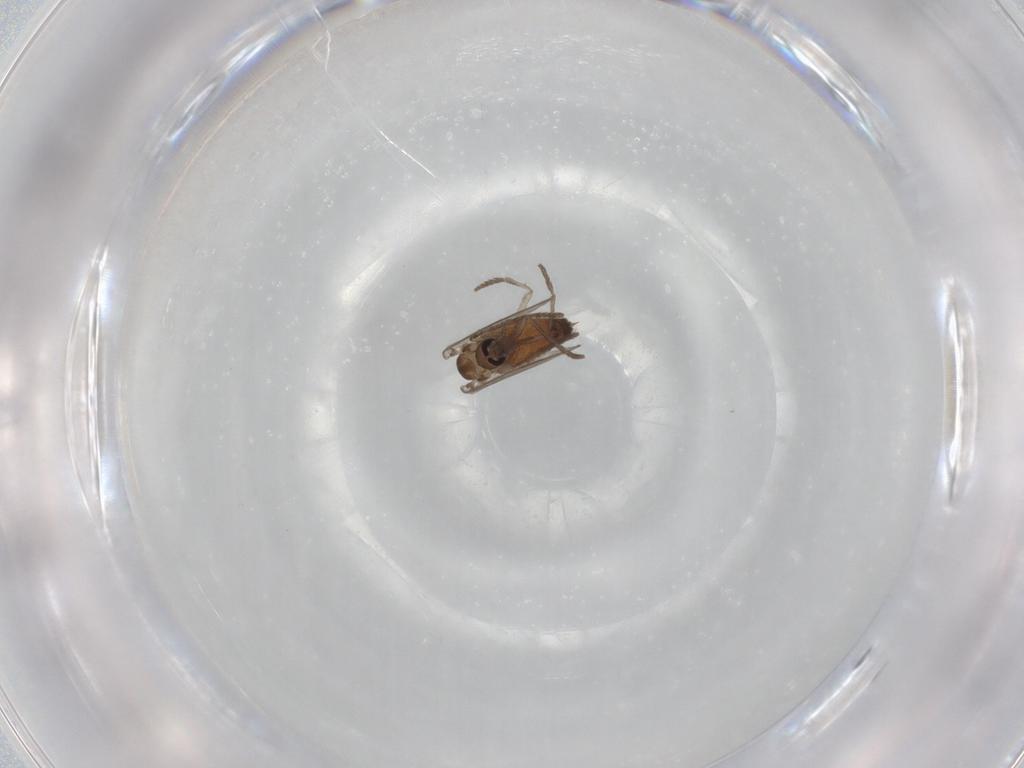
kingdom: Animalia
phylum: Arthropoda
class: Insecta
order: Diptera
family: Psychodidae
